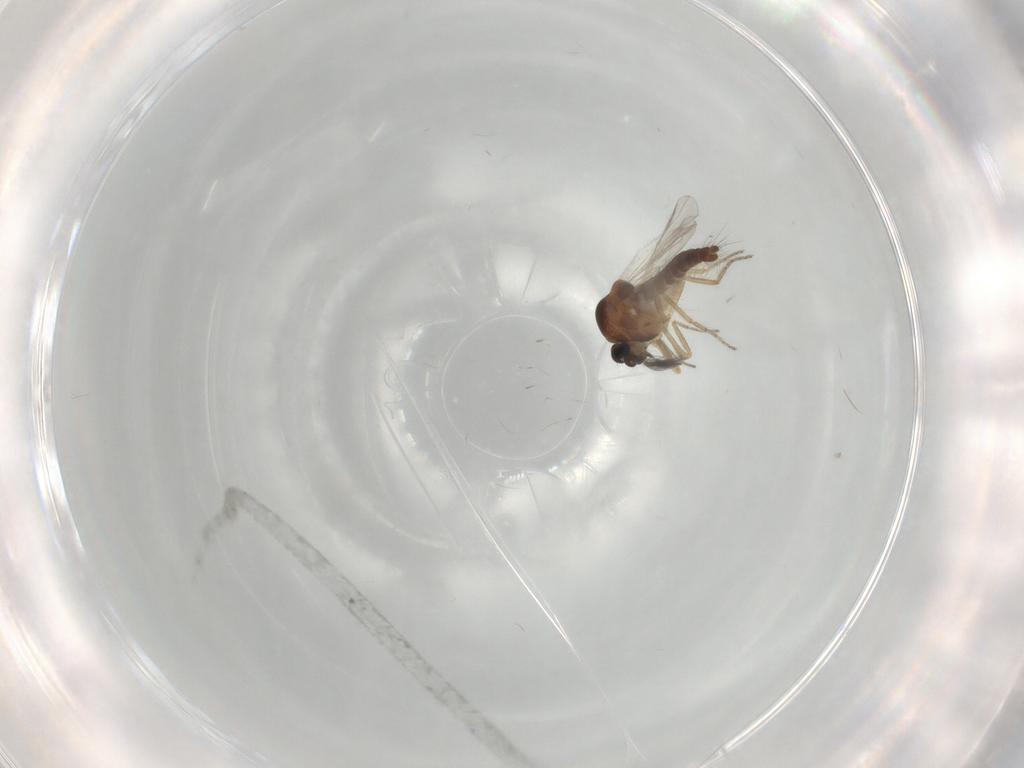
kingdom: Animalia
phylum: Arthropoda
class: Insecta
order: Diptera
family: Ceratopogonidae
